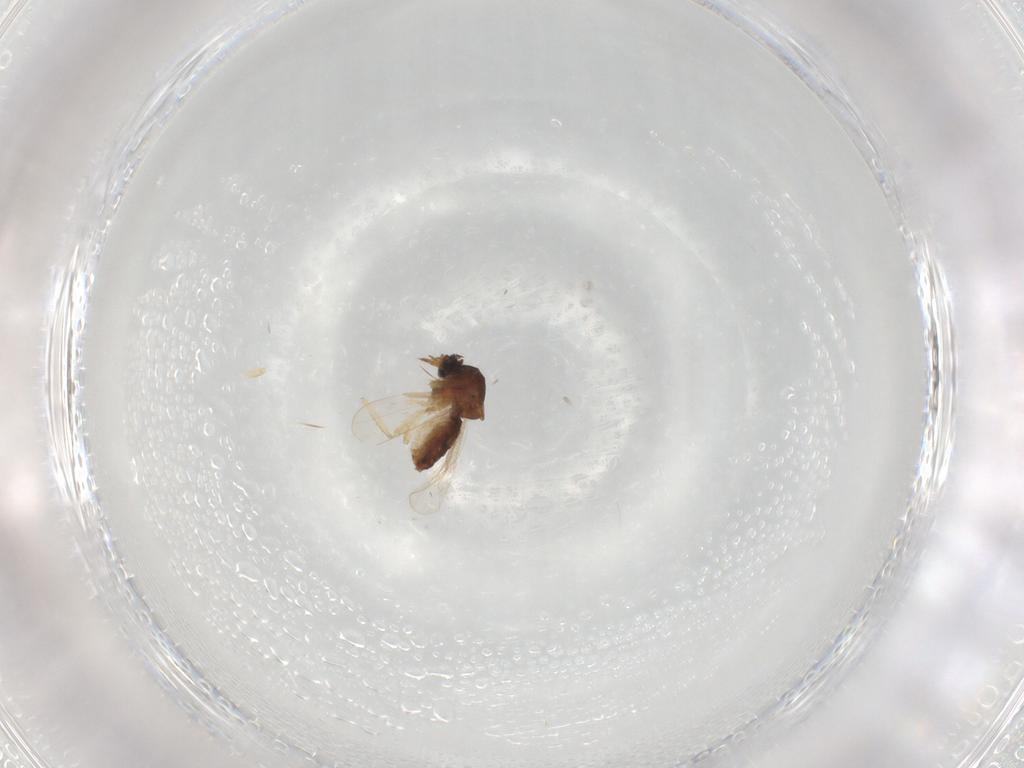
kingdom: Animalia
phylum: Arthropoda
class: Insecta
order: Diptera
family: Ceratopogonidae
